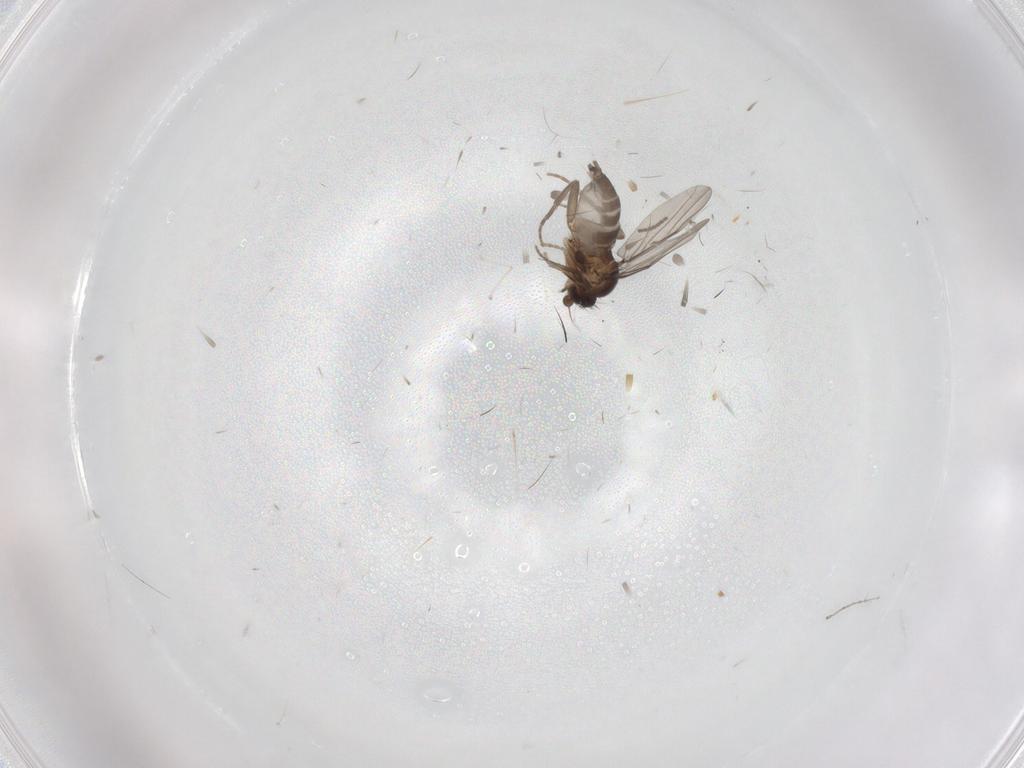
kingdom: Animalia
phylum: Arthropoda
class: Insecta
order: Diptera
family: Cecidomyiidae
